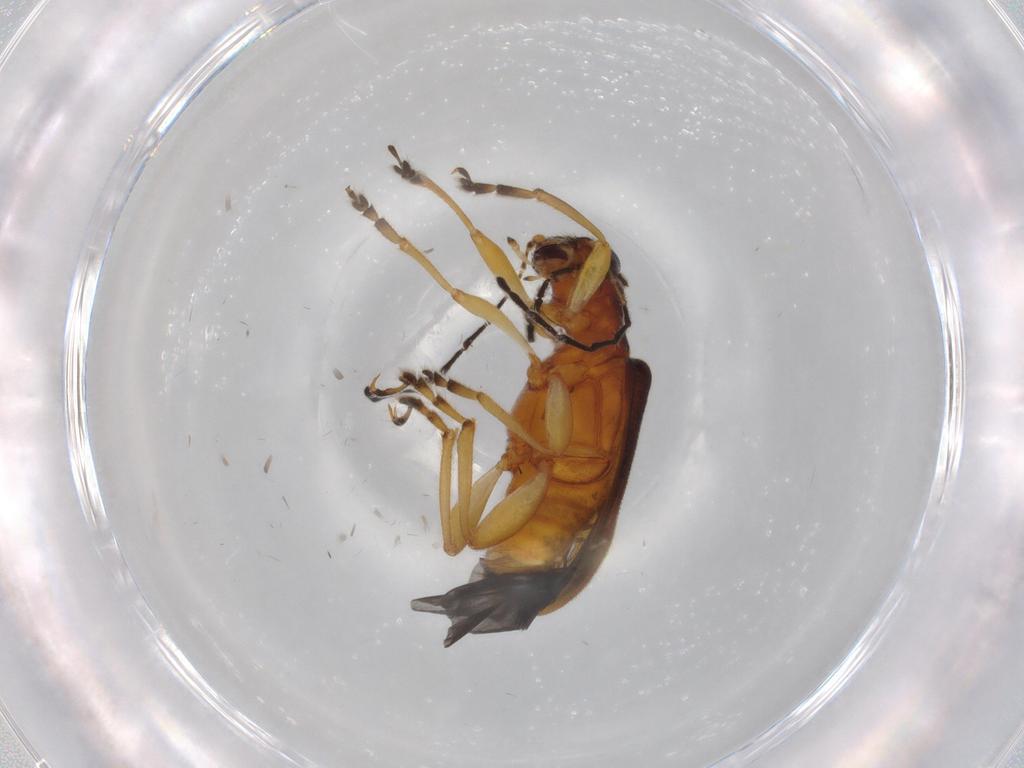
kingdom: Animalia
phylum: Arthropoda
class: Insecta
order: Coleoptera
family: Chrysomelidae
